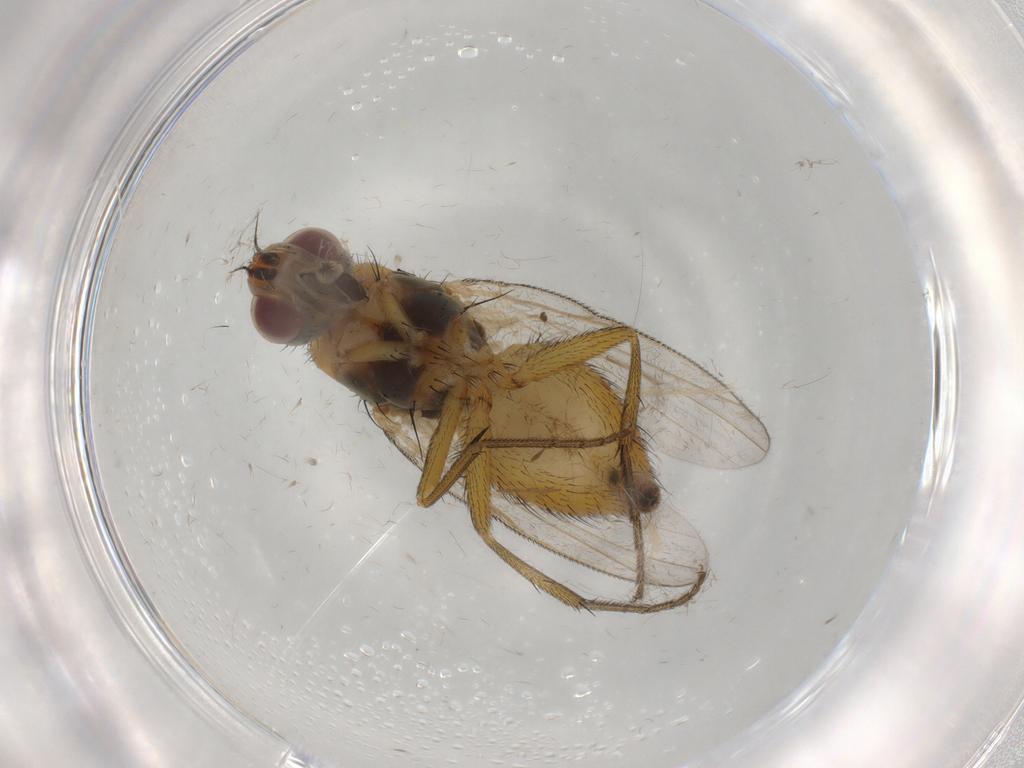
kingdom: Animalia
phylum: Arthropoda
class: Insecta
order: Diptera
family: Muscidae
